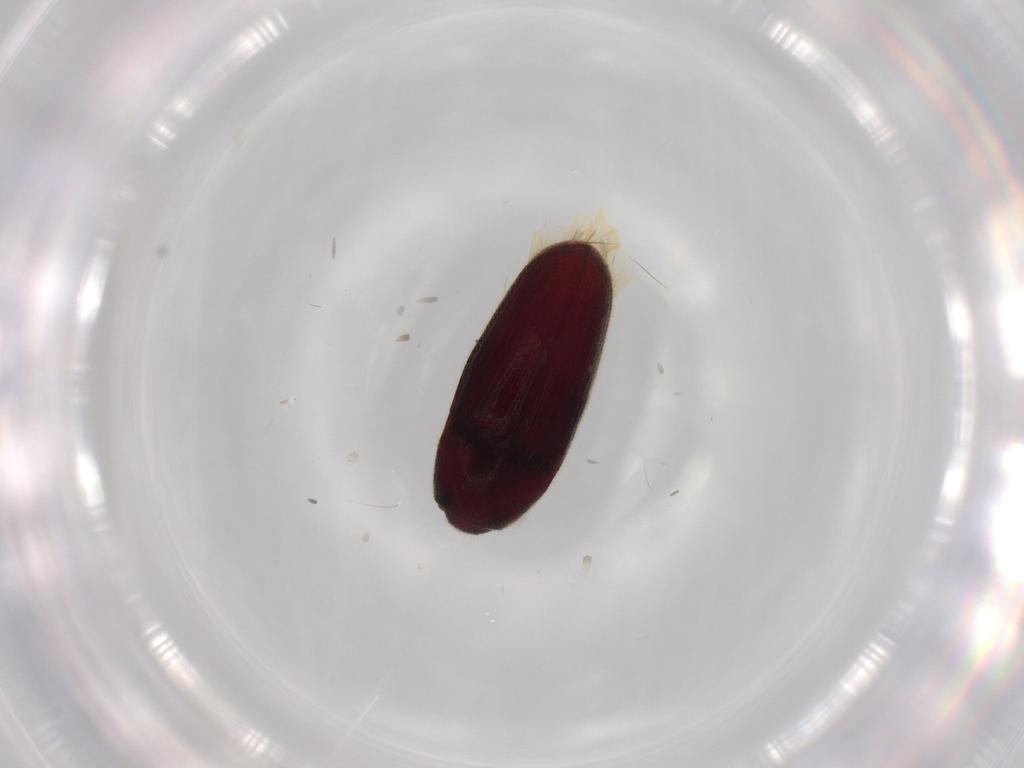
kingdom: Animalia
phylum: Arthropoda
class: Insecta
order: Coleoptera
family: Throscidae
